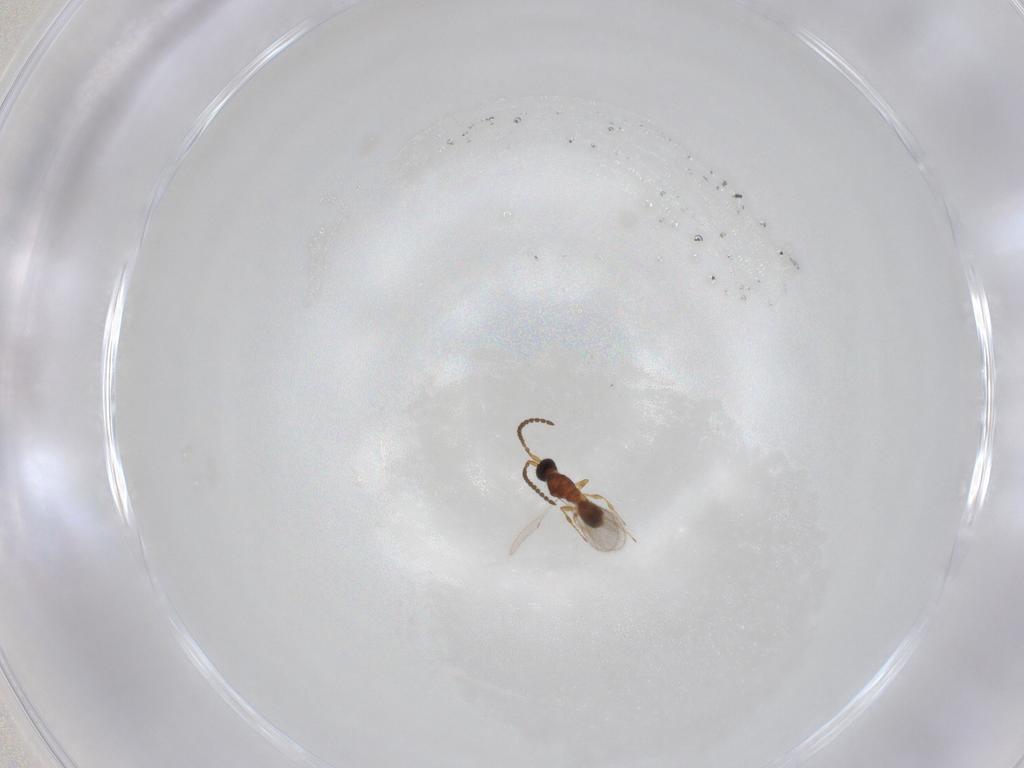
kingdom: Animalia
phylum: Arthropoda
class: Insecta
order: Hymenoptera
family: Diapriidae
